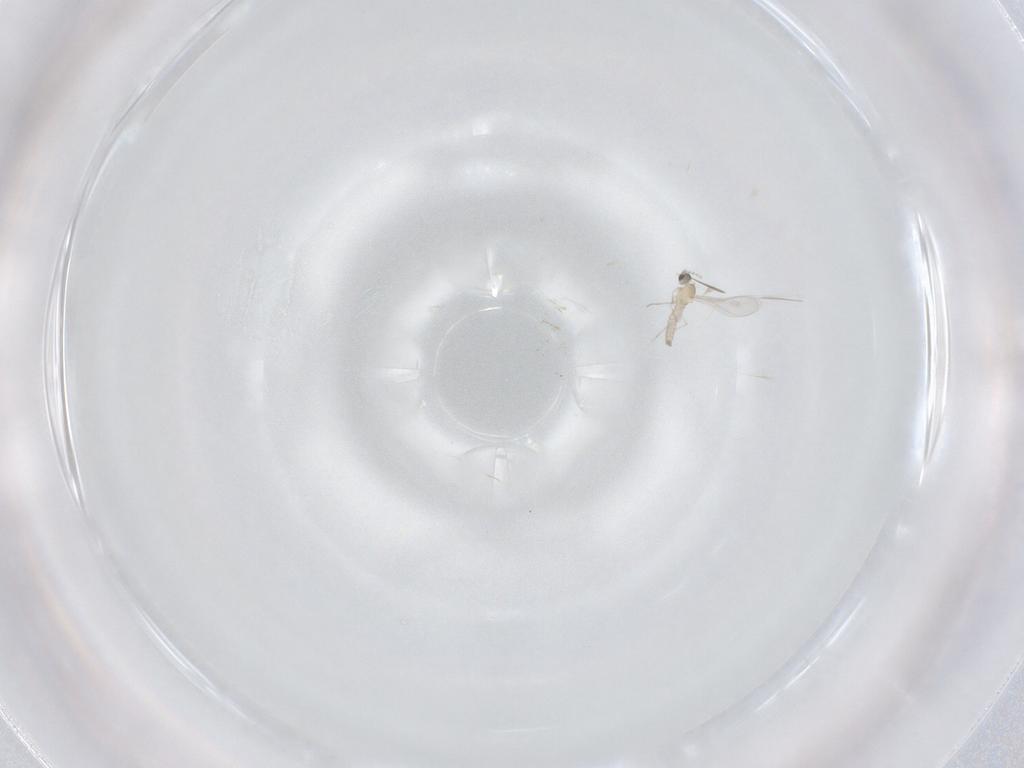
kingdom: Animalia
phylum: Arthropoda
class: Insecta
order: Diptera
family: Cecidomyiidae
